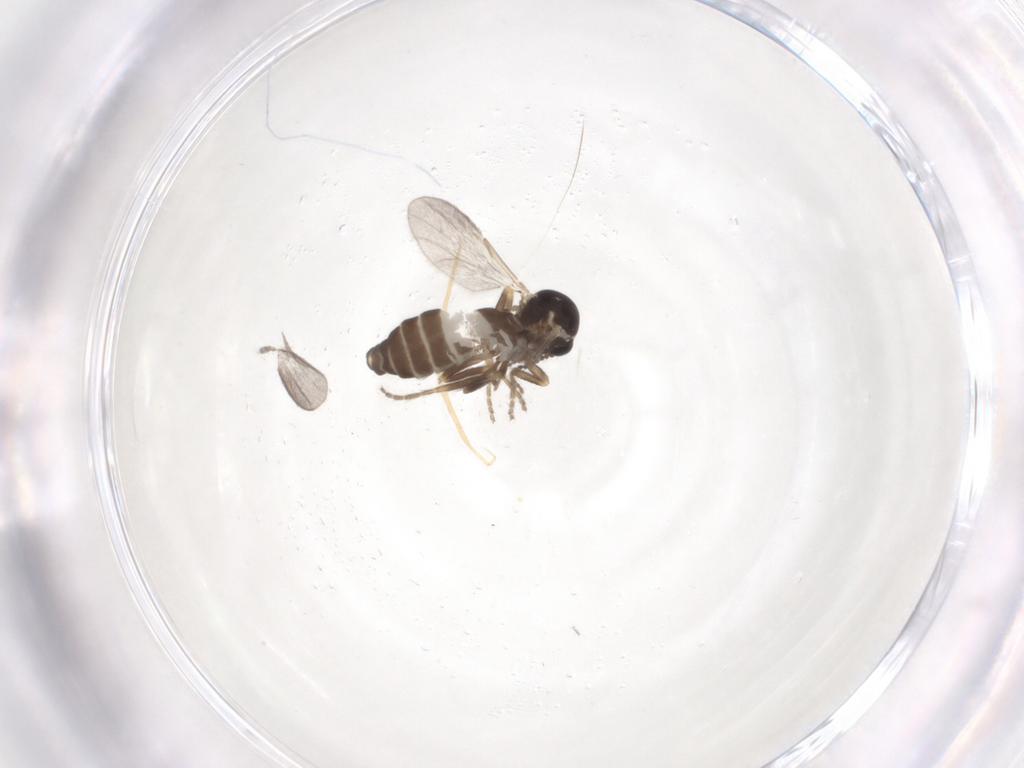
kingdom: Animalia
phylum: Arthropoda
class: Insecta
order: Diptera
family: Ceratopogonidae
